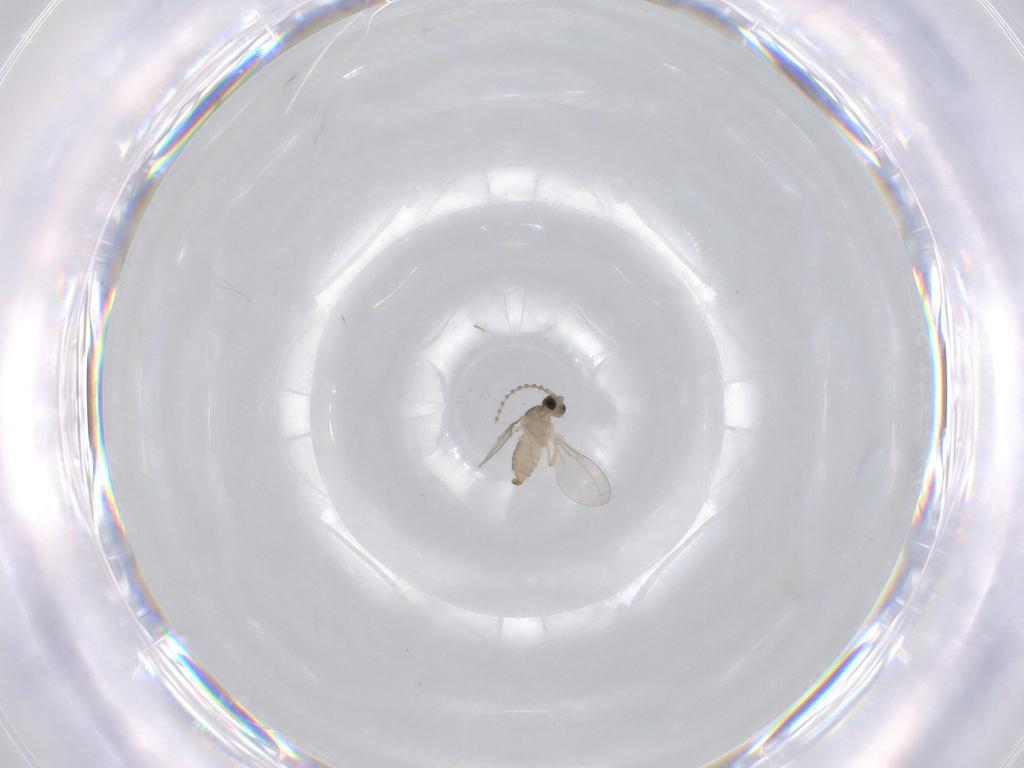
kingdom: Animalia
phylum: Arthropoda
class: Insecta
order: Diptera
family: Cecidomyiidae
